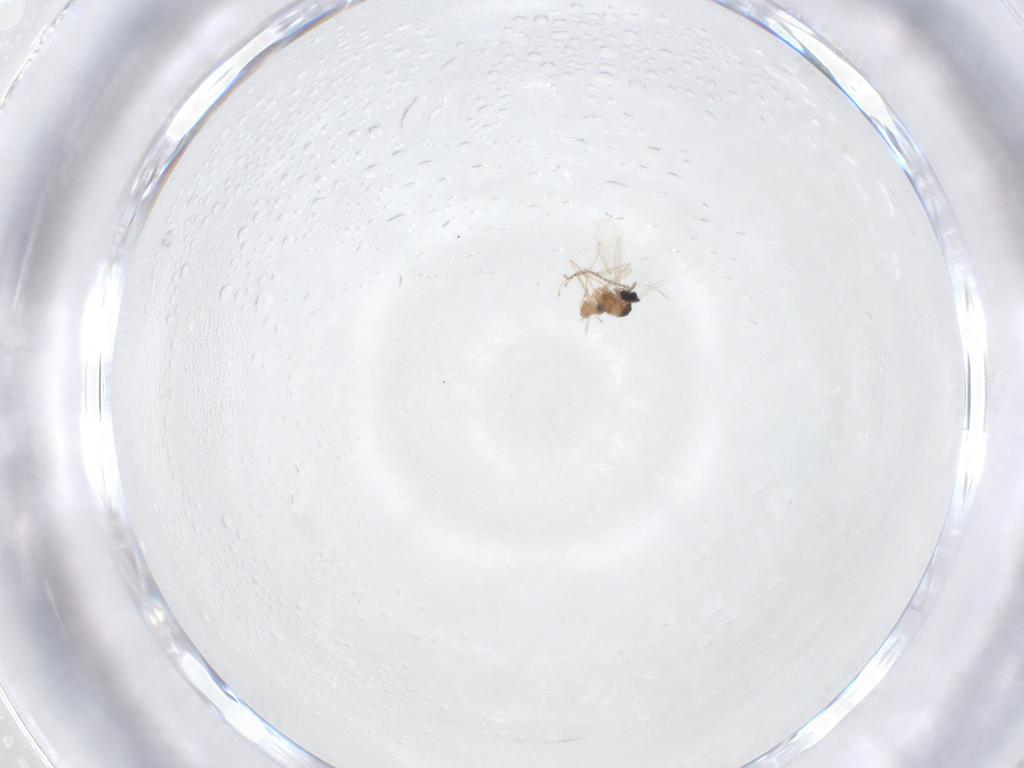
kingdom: Animalia
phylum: Arthropoda
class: Insecta
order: Diptera
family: Cecidomyiidae
